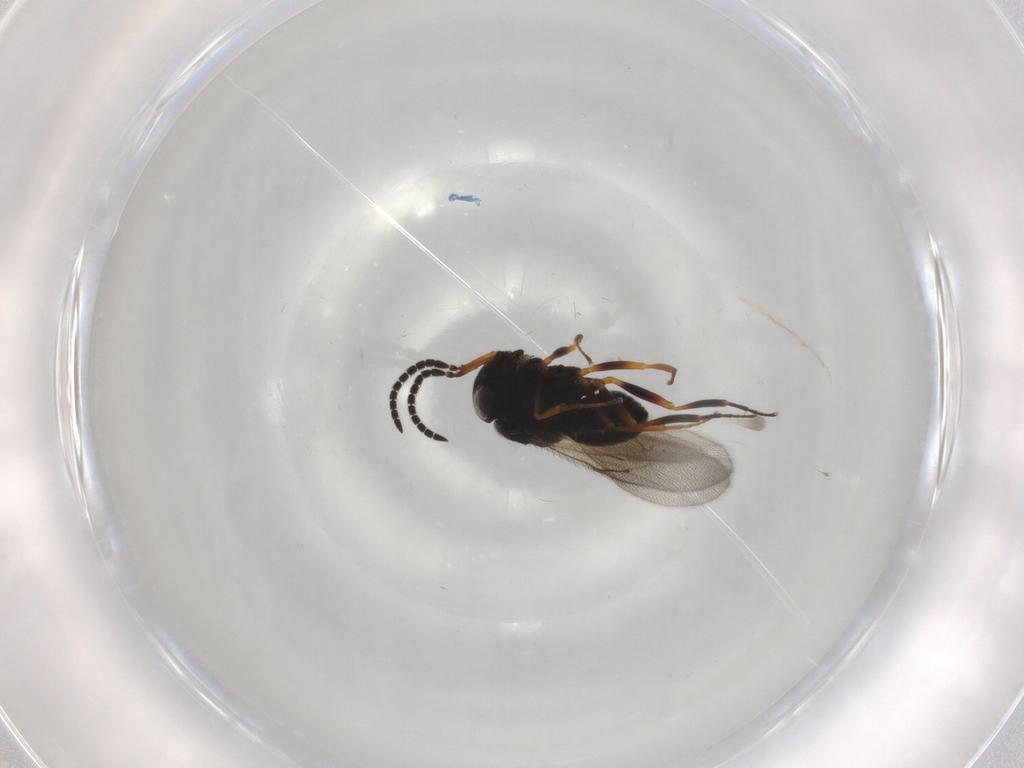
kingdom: Animalia
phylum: Arthropoda
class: Insecta
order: Hymenoptera
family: Scelionidae
